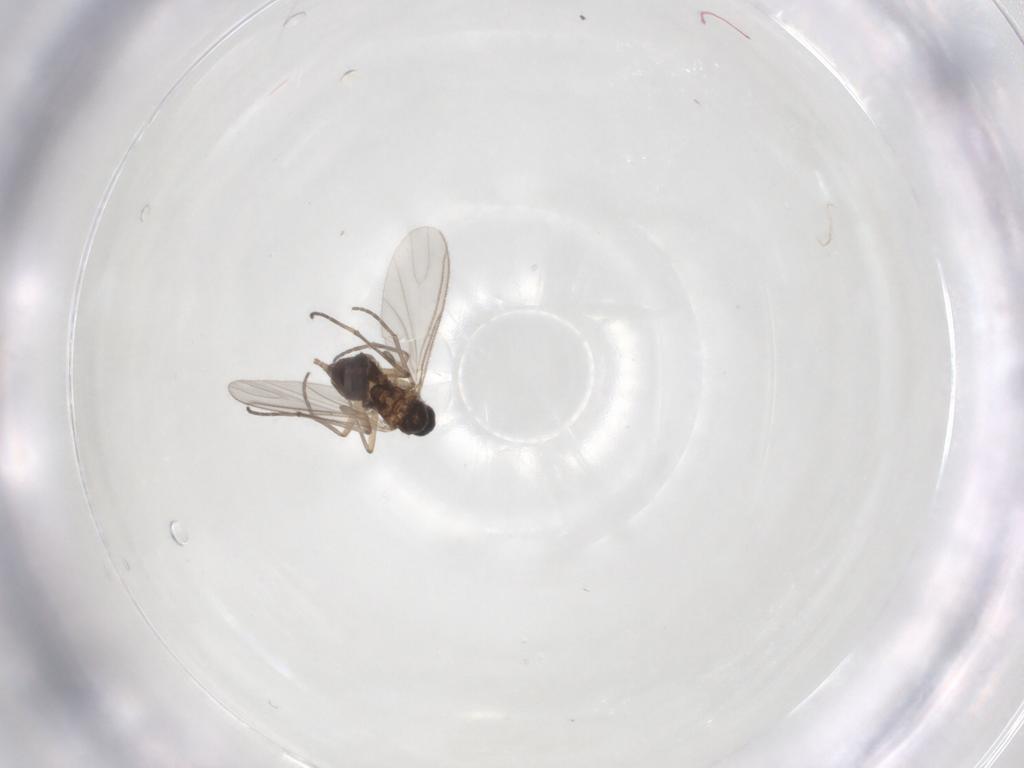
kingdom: Animalia
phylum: Arthropoda
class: Insecta
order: Diptera
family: Sciaridae
